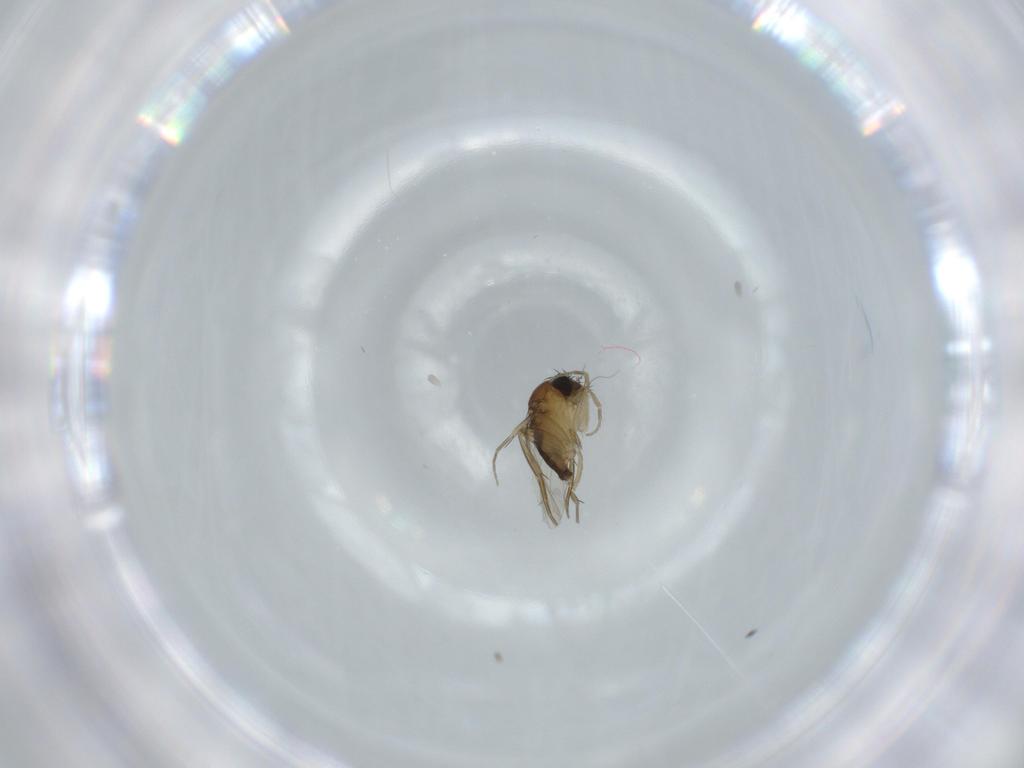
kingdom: Animalia
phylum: Arthropoda
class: Insecta
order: Diptera
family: Phoridae
